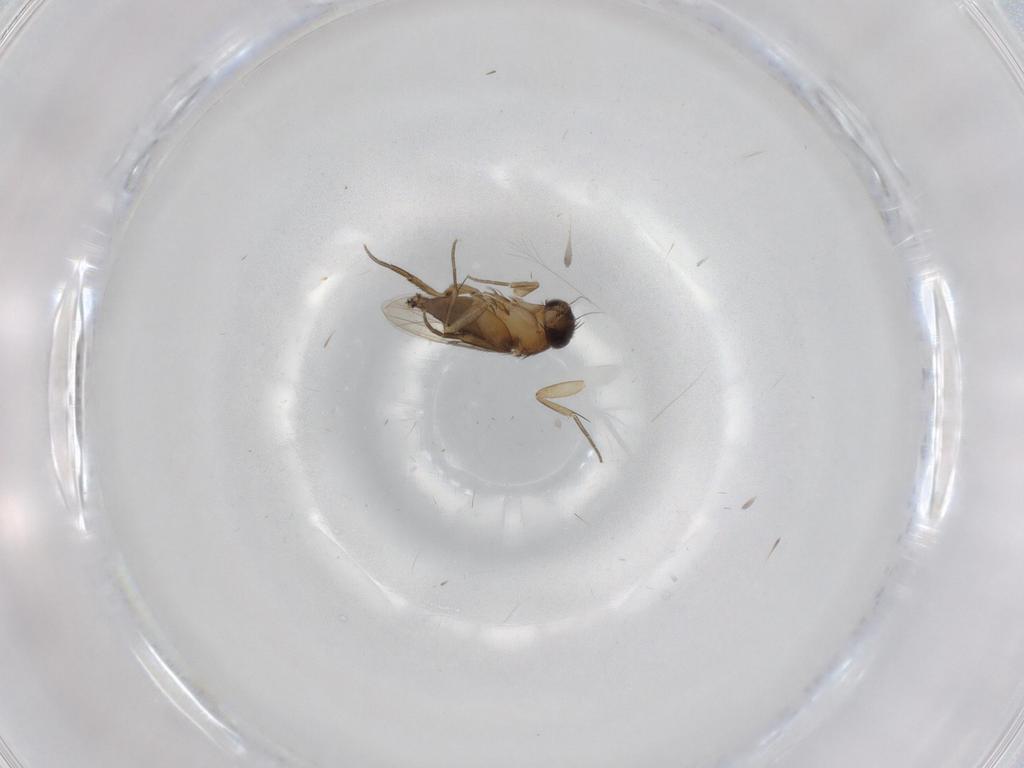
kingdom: Animalia
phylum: Arthropoda
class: Insecta
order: Diptera
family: Phoridae
